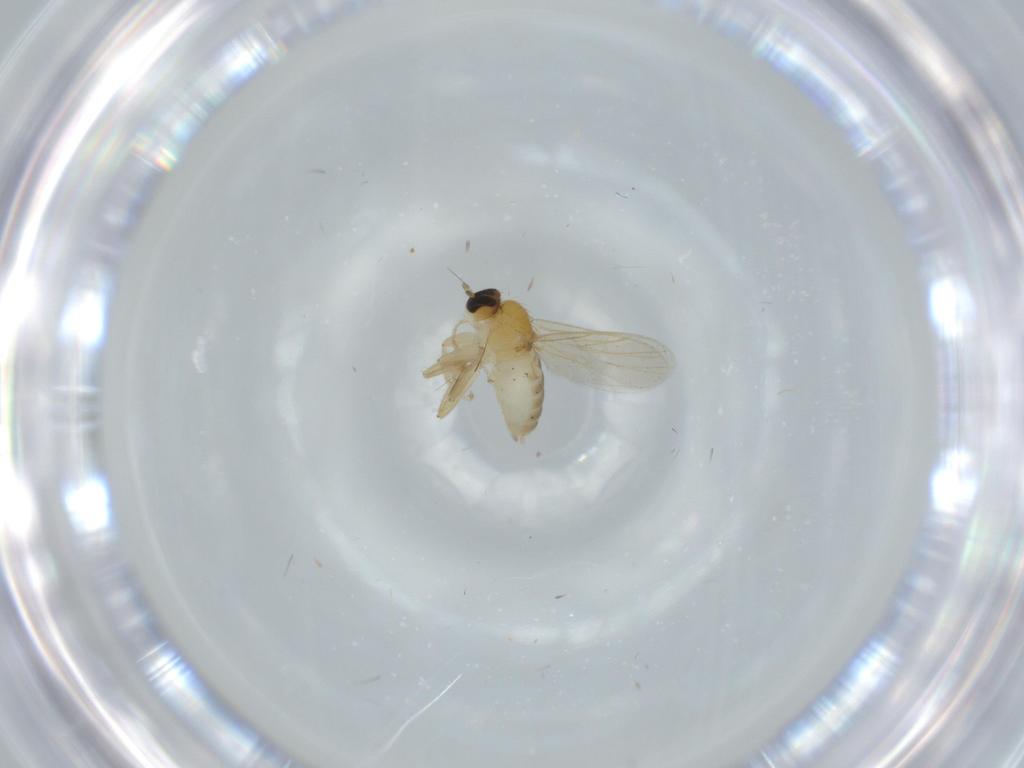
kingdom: Animalia
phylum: Arthropoda
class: Insecta
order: Diptera
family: Hybotidae
